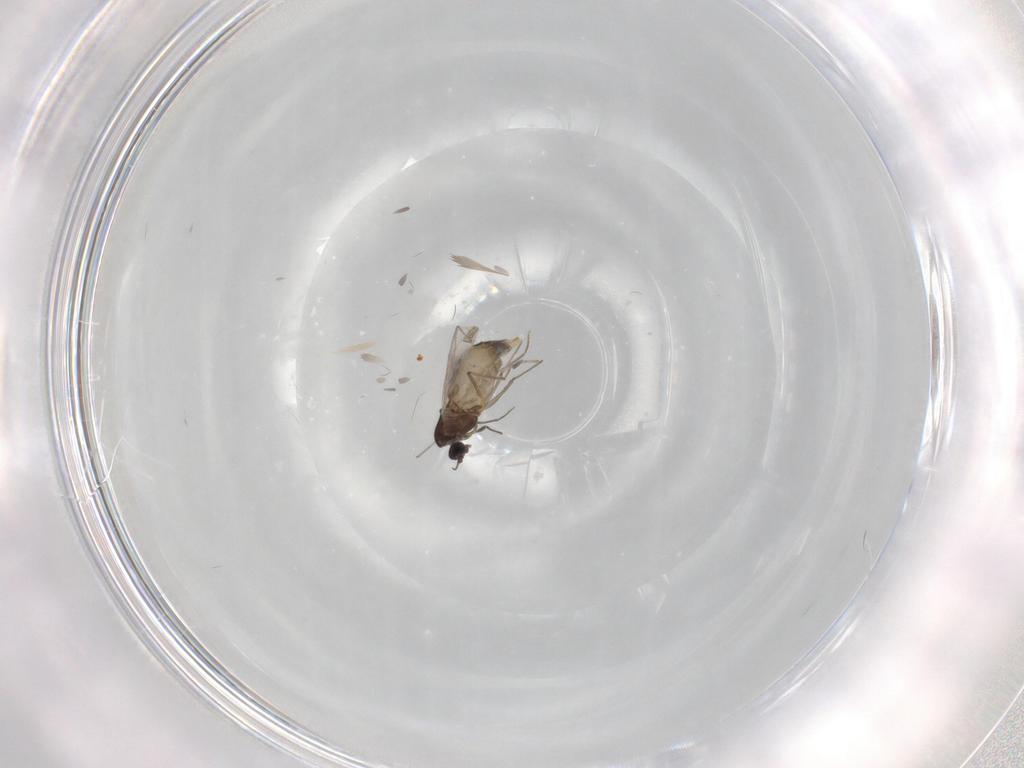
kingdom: Animalia
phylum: Arthropoda
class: Insecta
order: Diptera
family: Chironomidae
